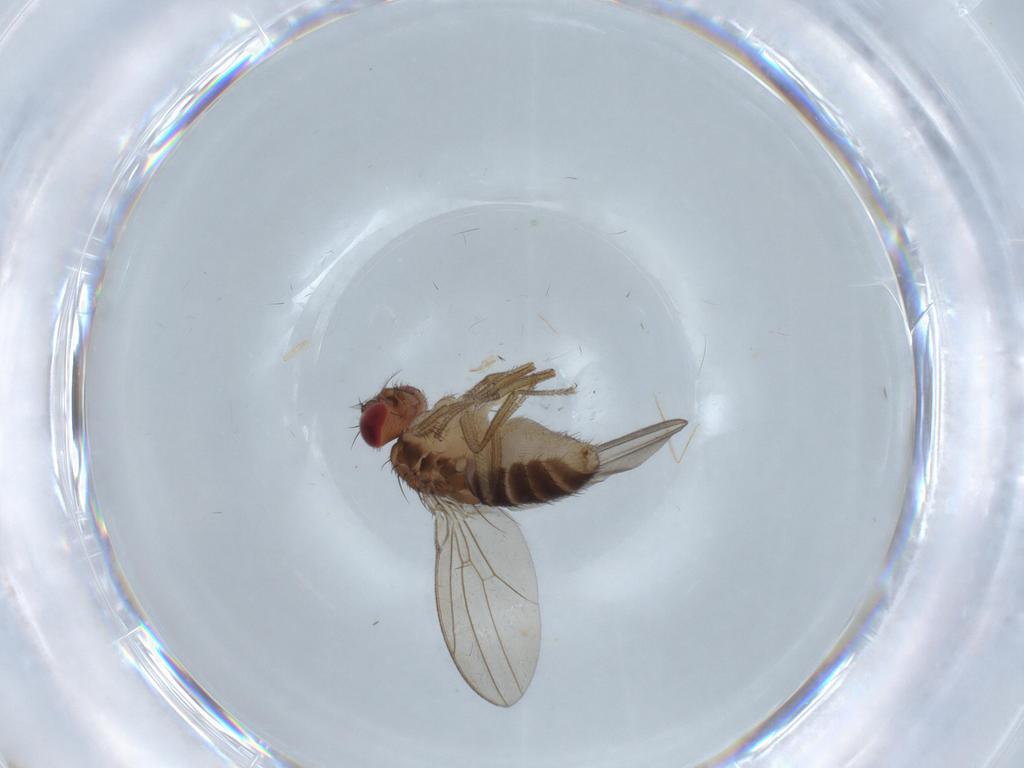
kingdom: Animalia
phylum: Arthropoda
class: Insecta
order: Diptera
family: Drosophilidae
